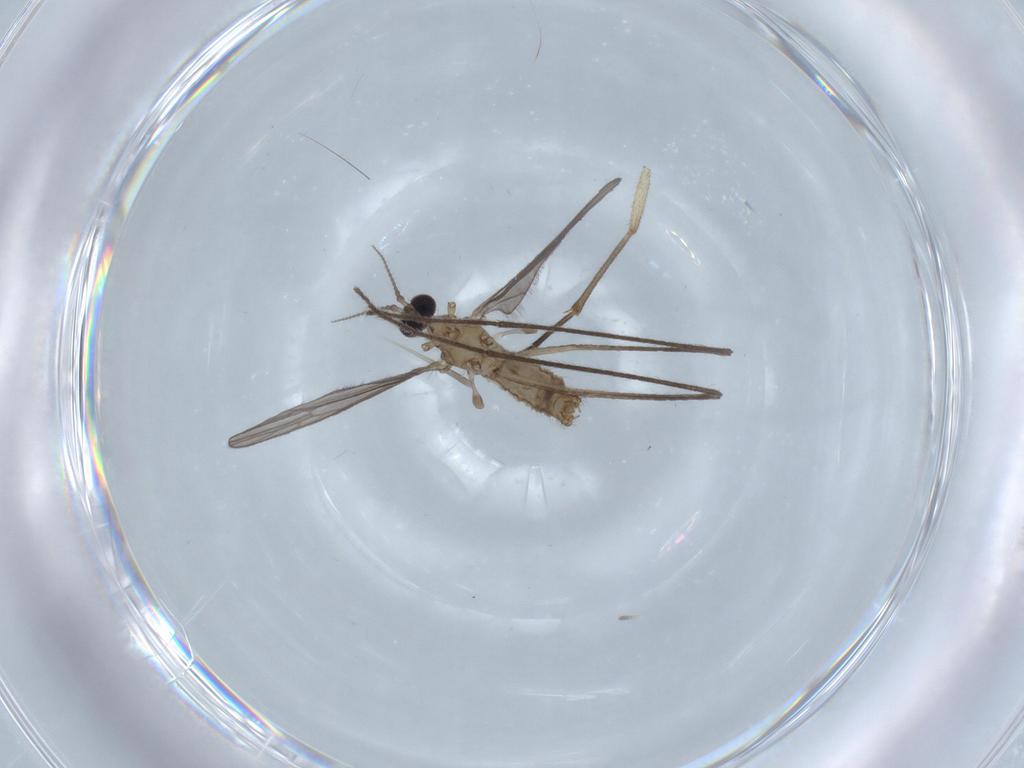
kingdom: Animalia
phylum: Arthropoda
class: Insecta
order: Diptera
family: Limoniidae
